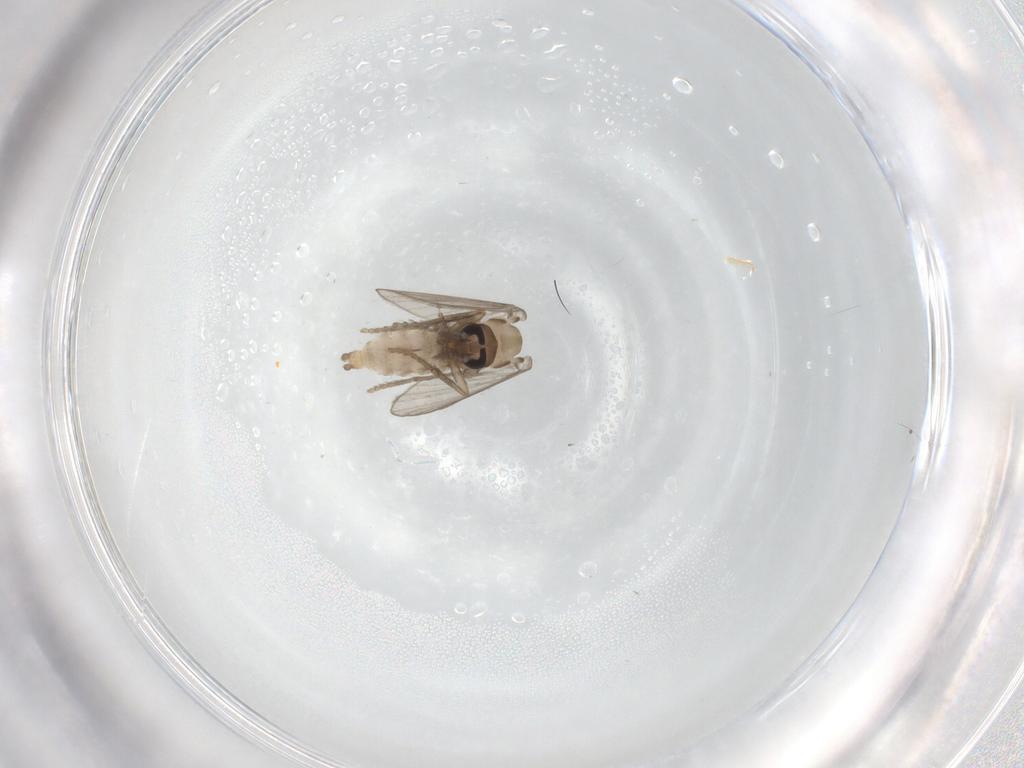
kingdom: Animalia
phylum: Arthropoda
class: Insecta
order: Diptera
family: Psychodidae
